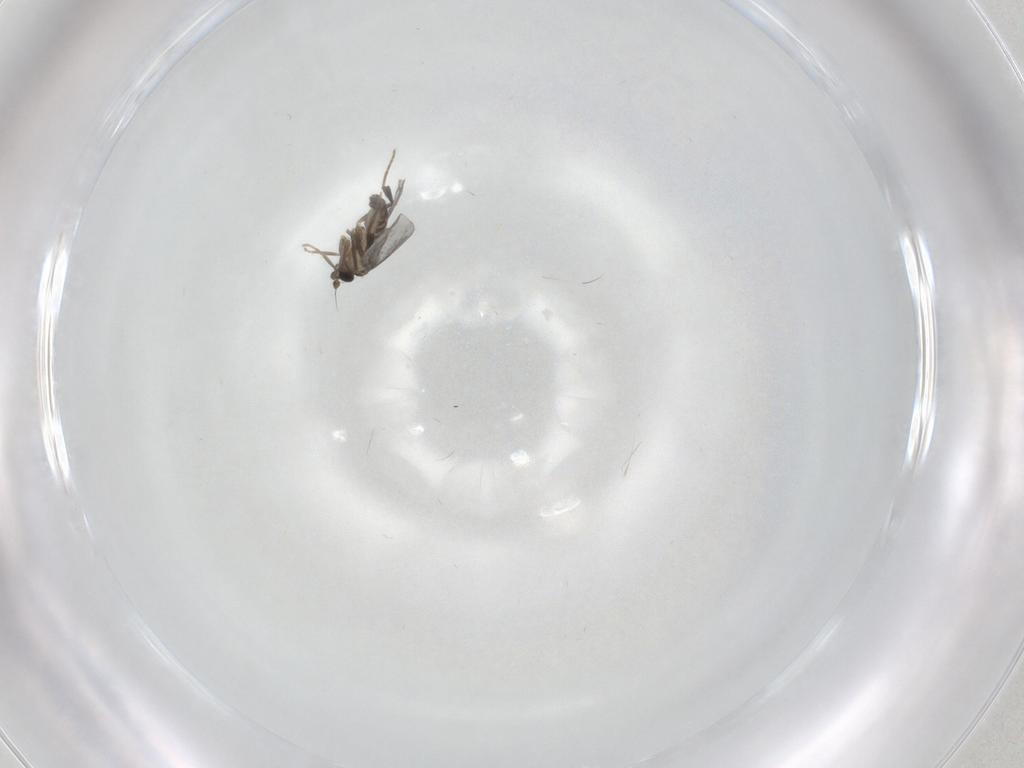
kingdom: Animalia
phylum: Arthropoda
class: Insecta
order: Diptera
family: Phoridae
